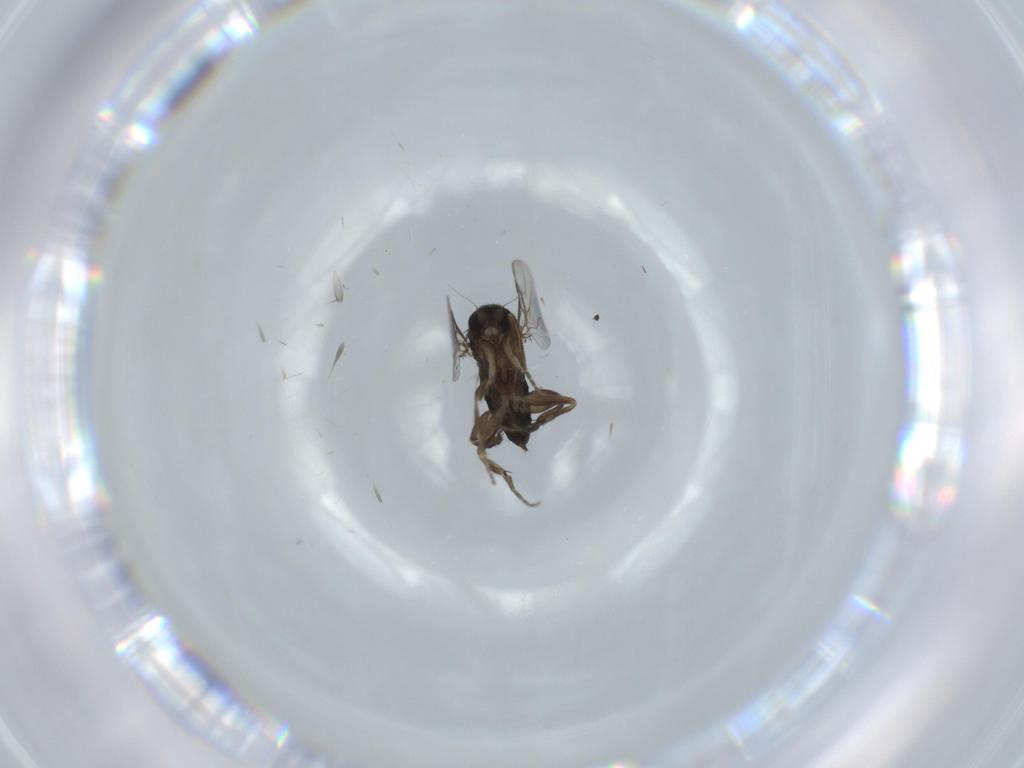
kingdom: Animalia
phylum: Arthropoda
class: Insecta
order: Diptera
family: Phoridae
